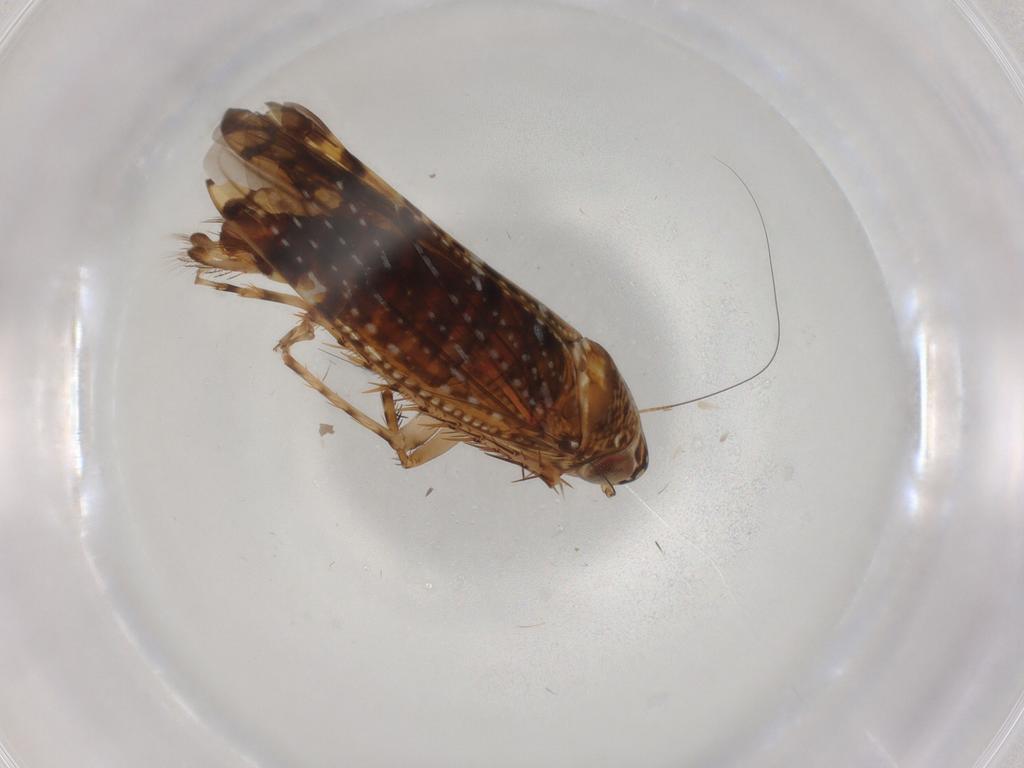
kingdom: Animalia
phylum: Arthropoda
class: Insecta
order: Hemiptera
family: Cicadellidae
